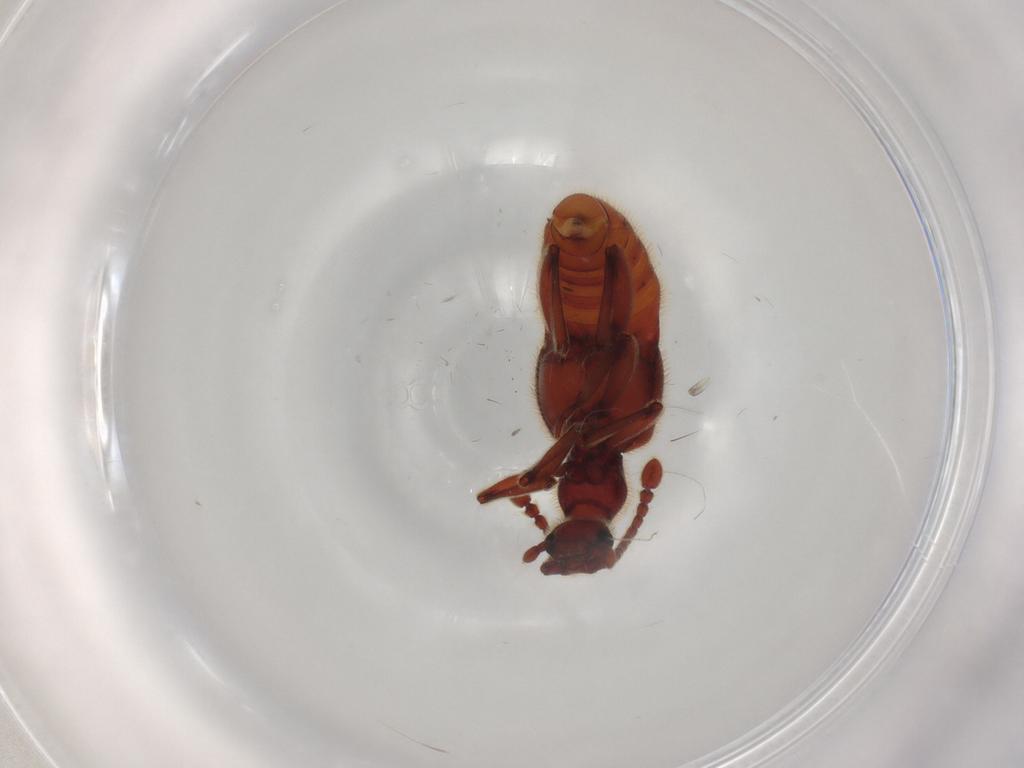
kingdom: Animalia
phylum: Arthropoda
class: Insecta
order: Coleoptera
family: Staphylinidae
